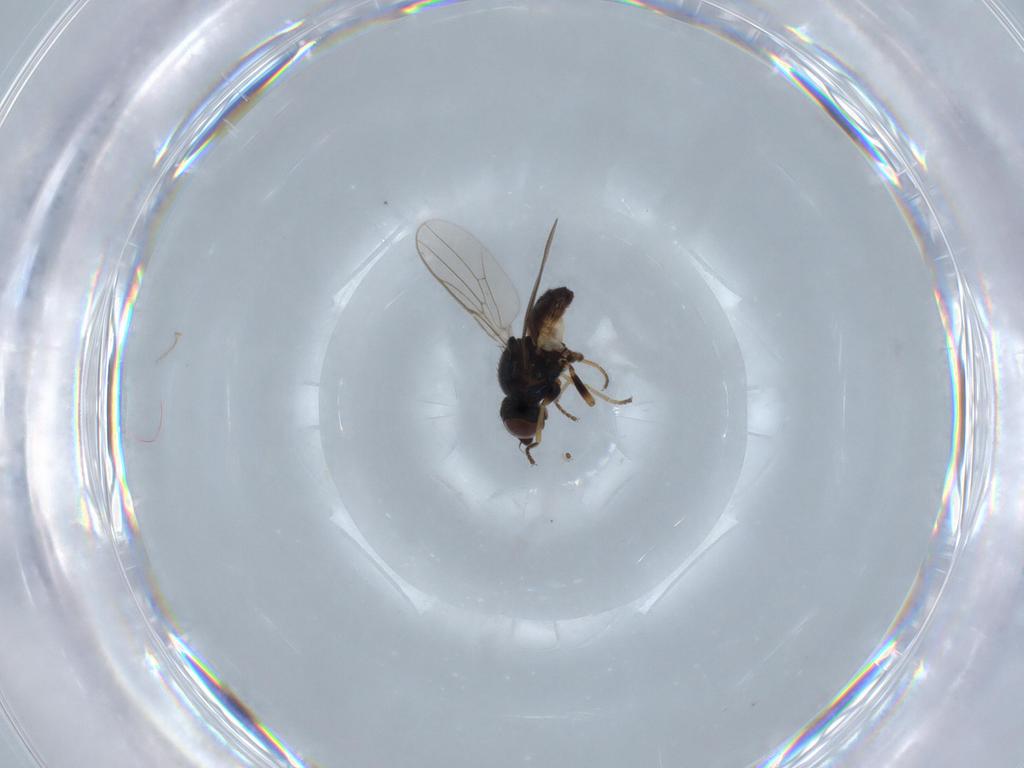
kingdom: Animalia
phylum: Arthropoda
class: Insecta
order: Diptera
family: Chloropidae
